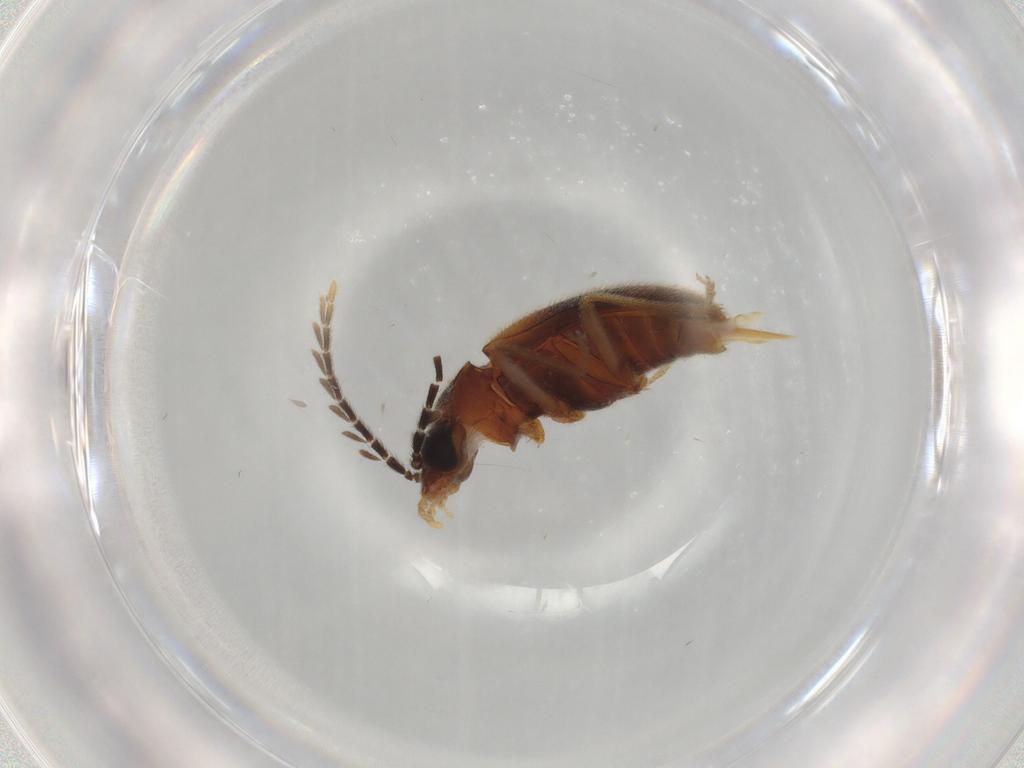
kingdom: Animalia
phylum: Arthropoda
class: Insecta
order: Coleoptera
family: Ptilodactylidae
